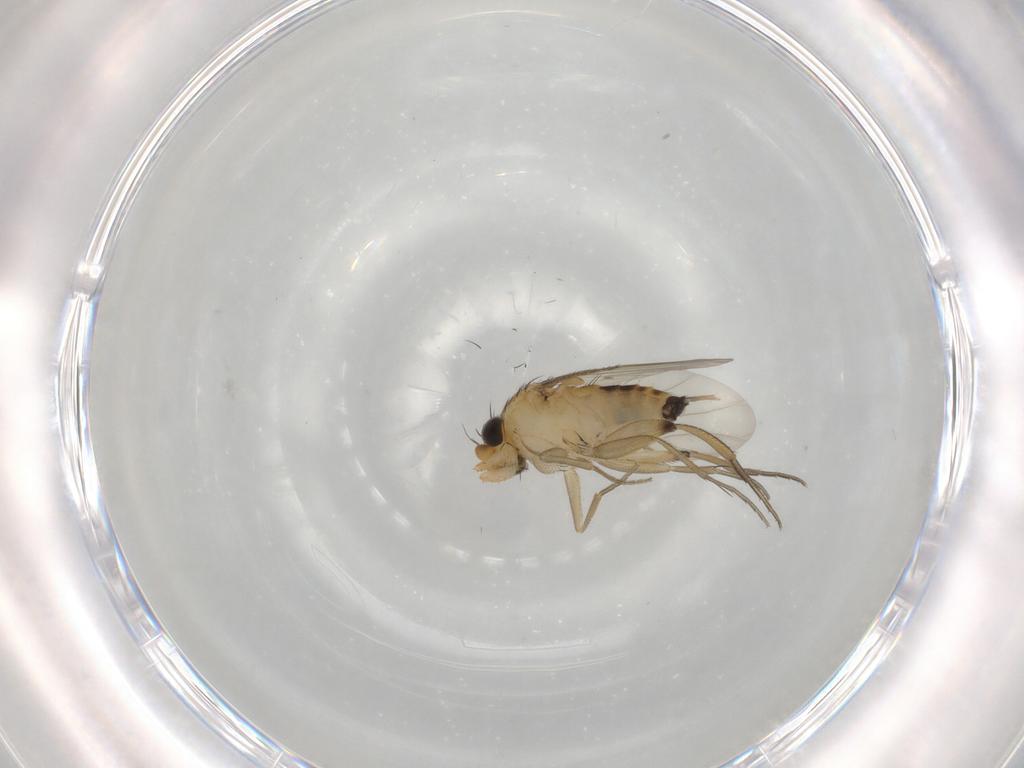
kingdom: Animalia
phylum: Arthropoda
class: Insecta
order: Diptera
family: Phoridae
